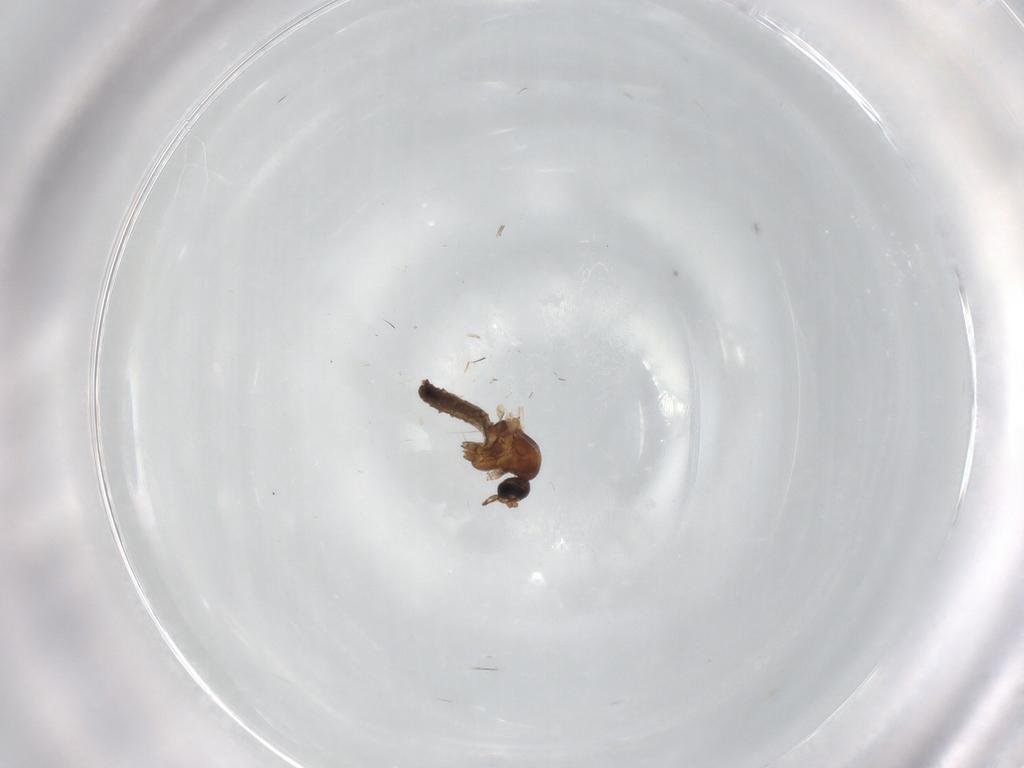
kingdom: Animalia
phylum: Arthropoda
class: Insecta
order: Diptera
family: Ceratopogonidae
